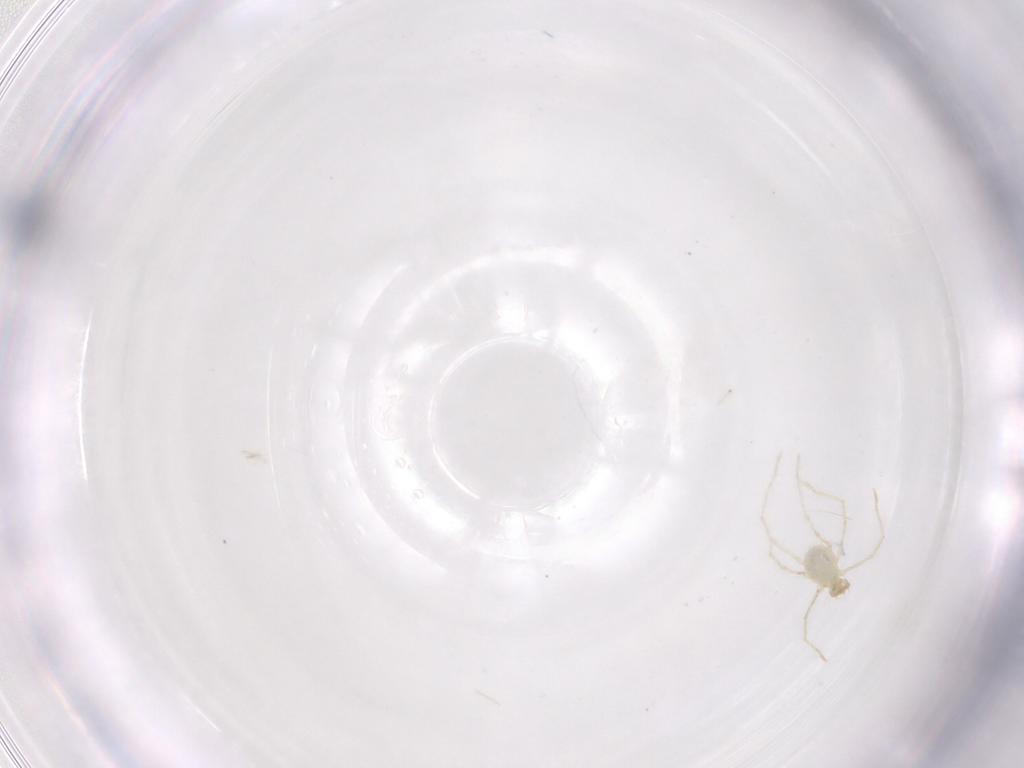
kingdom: Animalia
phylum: Arthropoda
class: Arachnida
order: Trombidiformes
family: Erythraeidae
